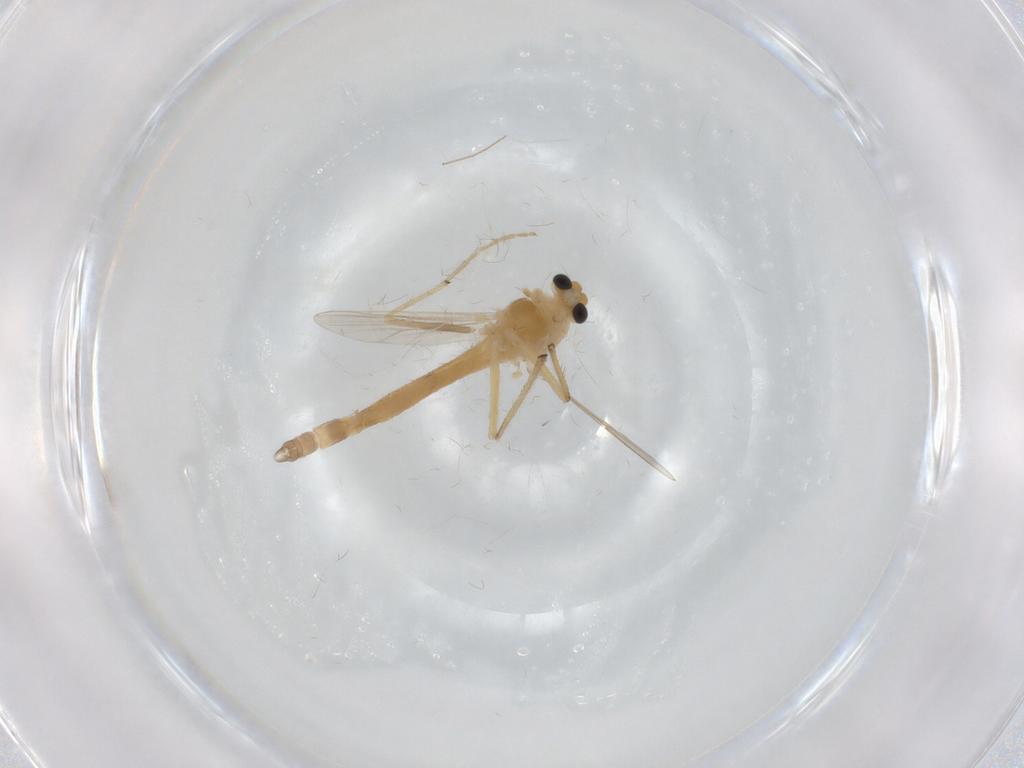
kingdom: Animalia
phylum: Arthropoda
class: Insecta
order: Diptera
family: Chironomidae
